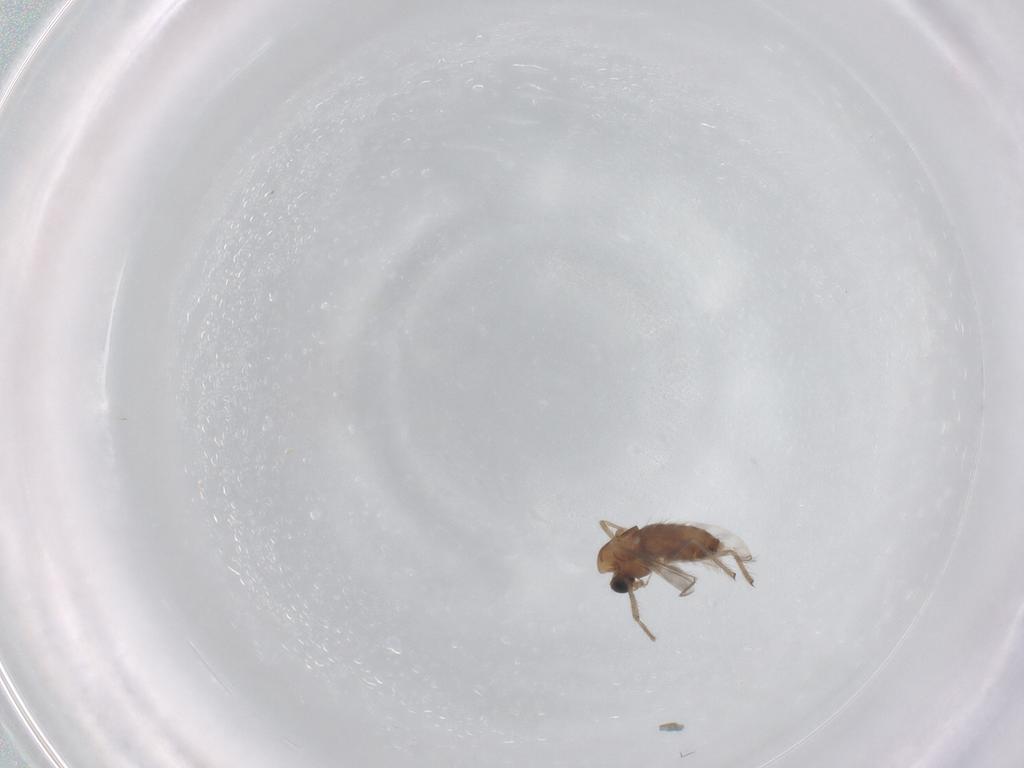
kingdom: Animalia
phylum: Arthropoda
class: Insecta
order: Diptera
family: Chironomidae
